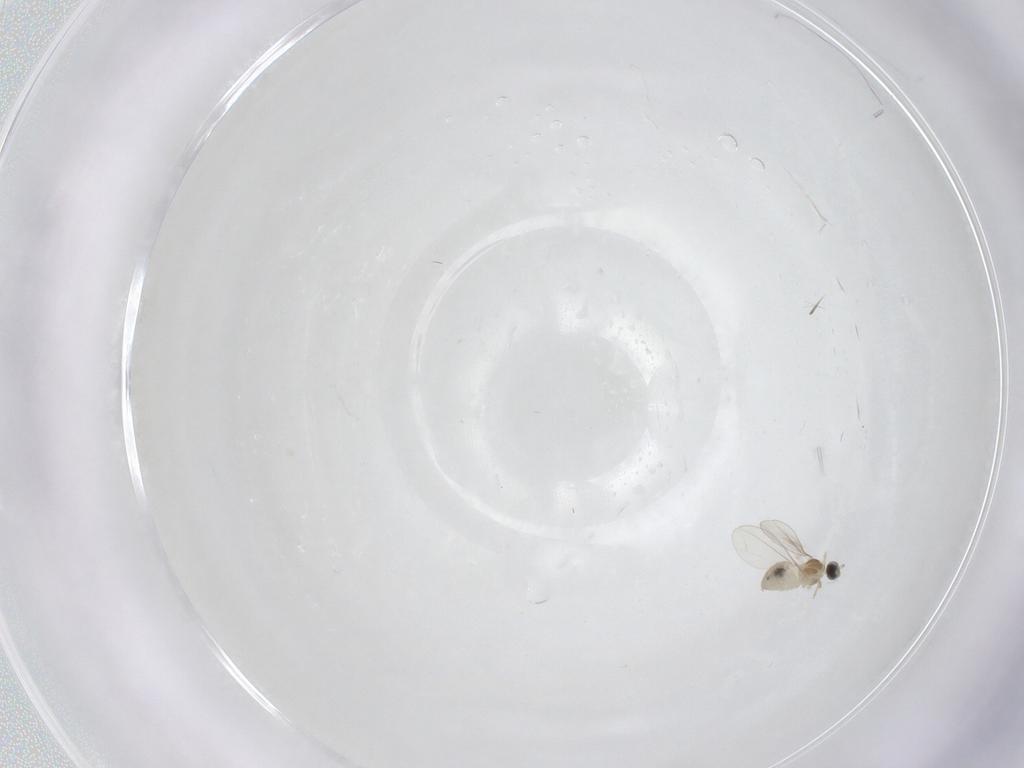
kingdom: Animalia
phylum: Arthropoda
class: Insecta
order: Diptera
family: Cecidomyiidae
